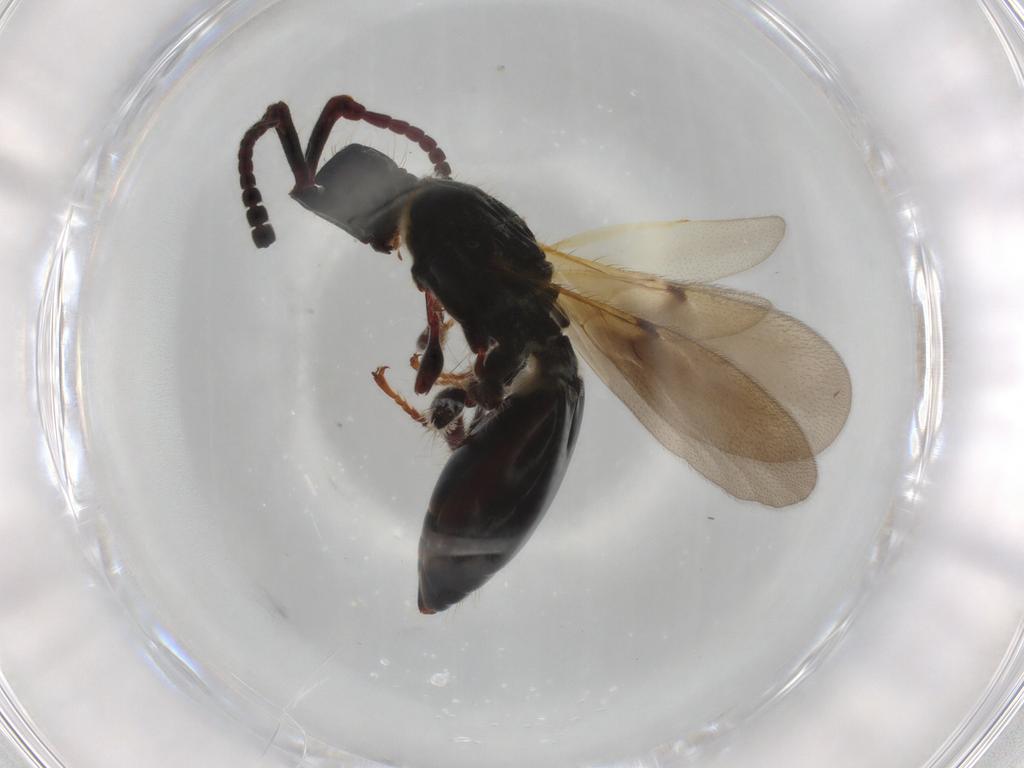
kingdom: Animalia
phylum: Arthropoda
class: Insecta
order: Hymenoptera
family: Diapriidae
